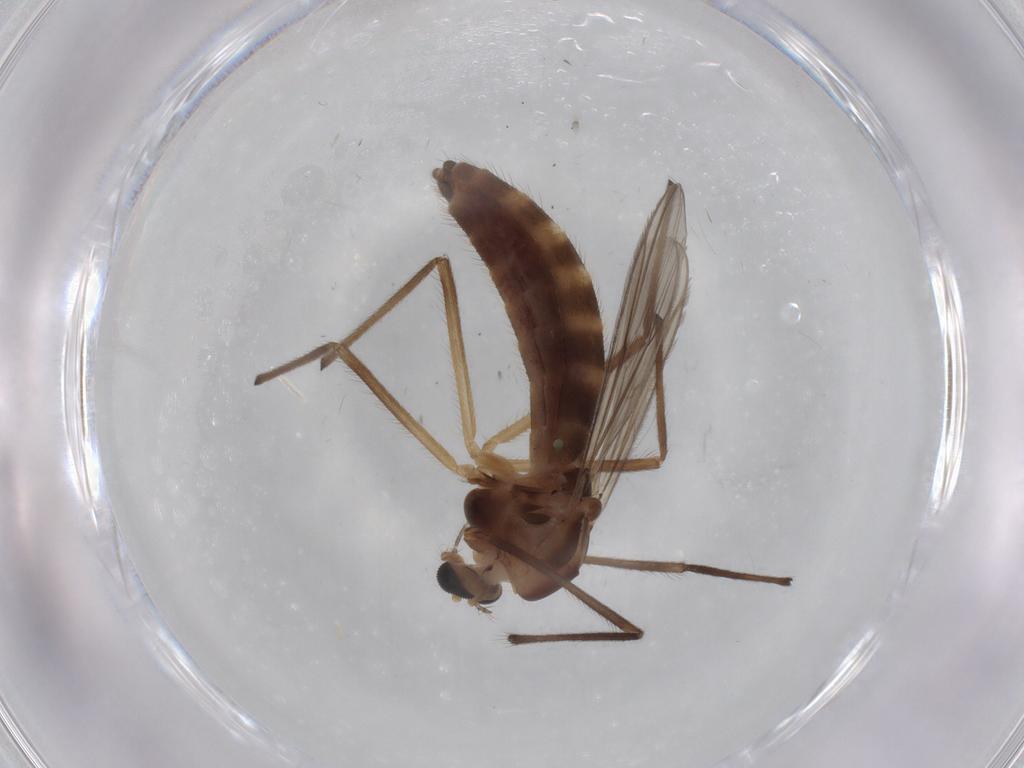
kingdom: Animalia
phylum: Arthropoda
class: Insecta
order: Diptera
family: Chironomidae
